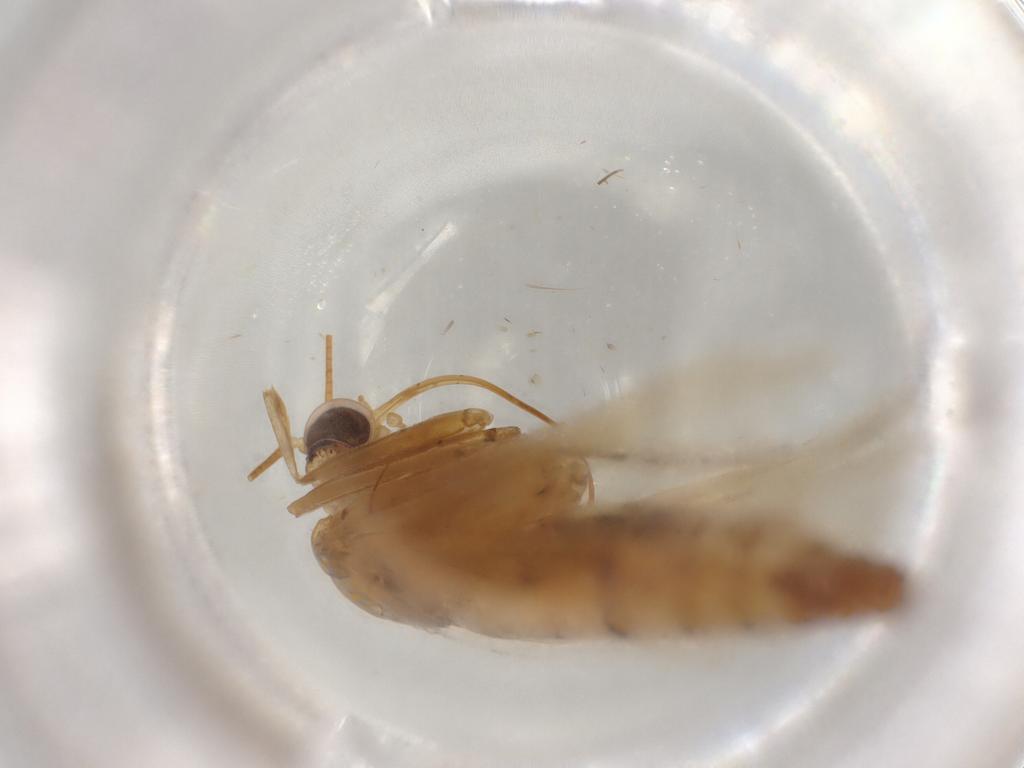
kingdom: Animalia
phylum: Arthropoda
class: Insecta
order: Lepidoptera
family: Crambidae
